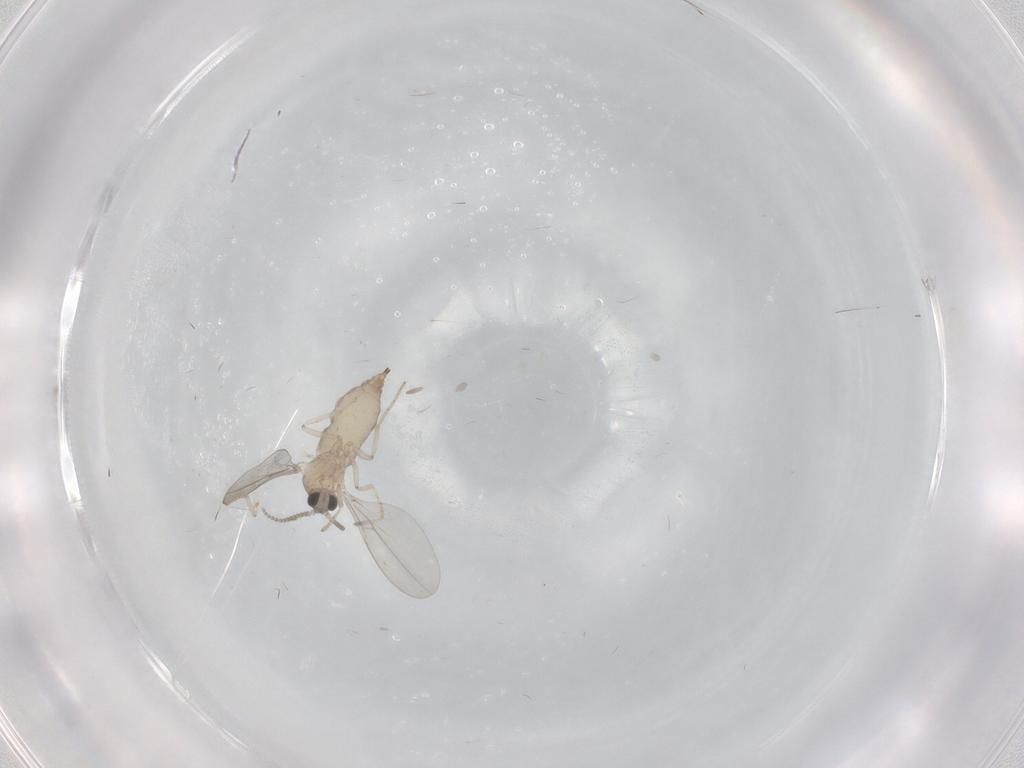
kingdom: Animalia
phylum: Arthropoda
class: Insecta
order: Diptera
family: Cecidomyiidae
